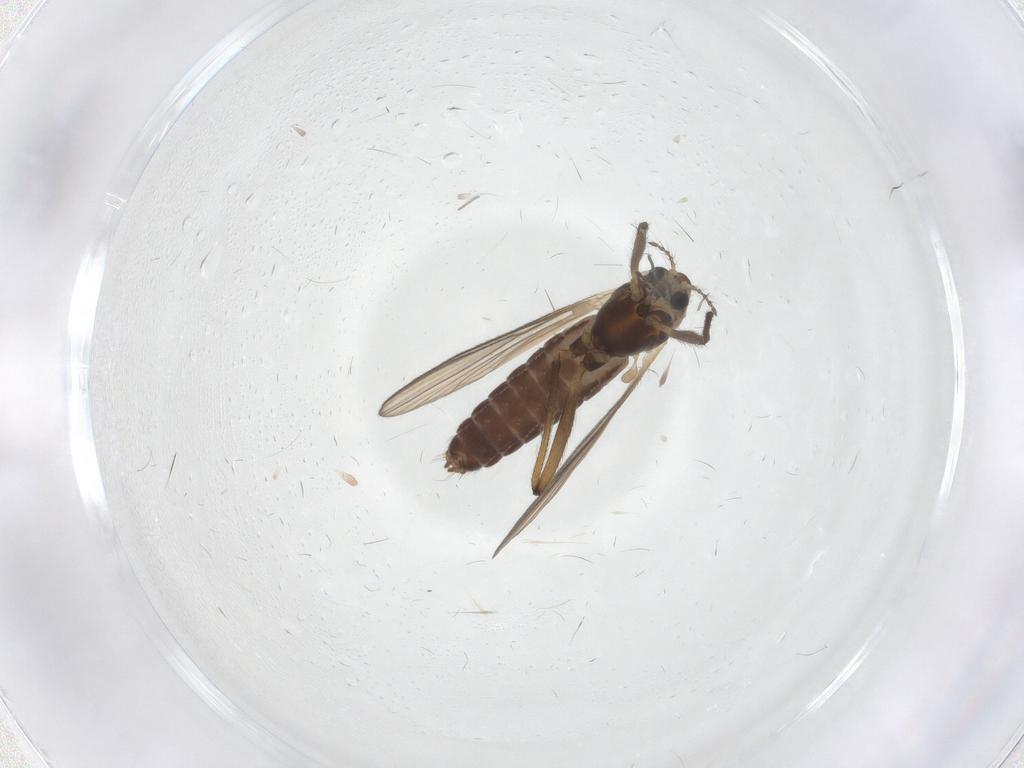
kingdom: Animalia
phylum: Arthropoda
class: Insecta
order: Diptera
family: Chironomidae
